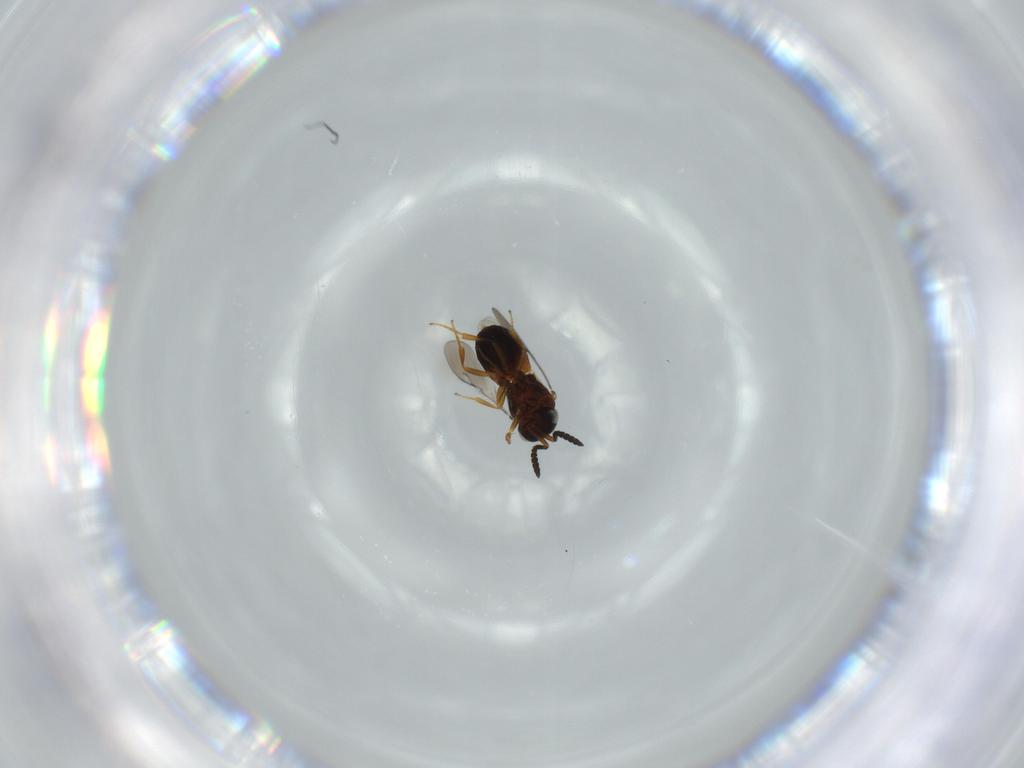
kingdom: Animalia
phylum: Arthropoda
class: Insecta
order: Hymenoptera
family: Scelionidae
